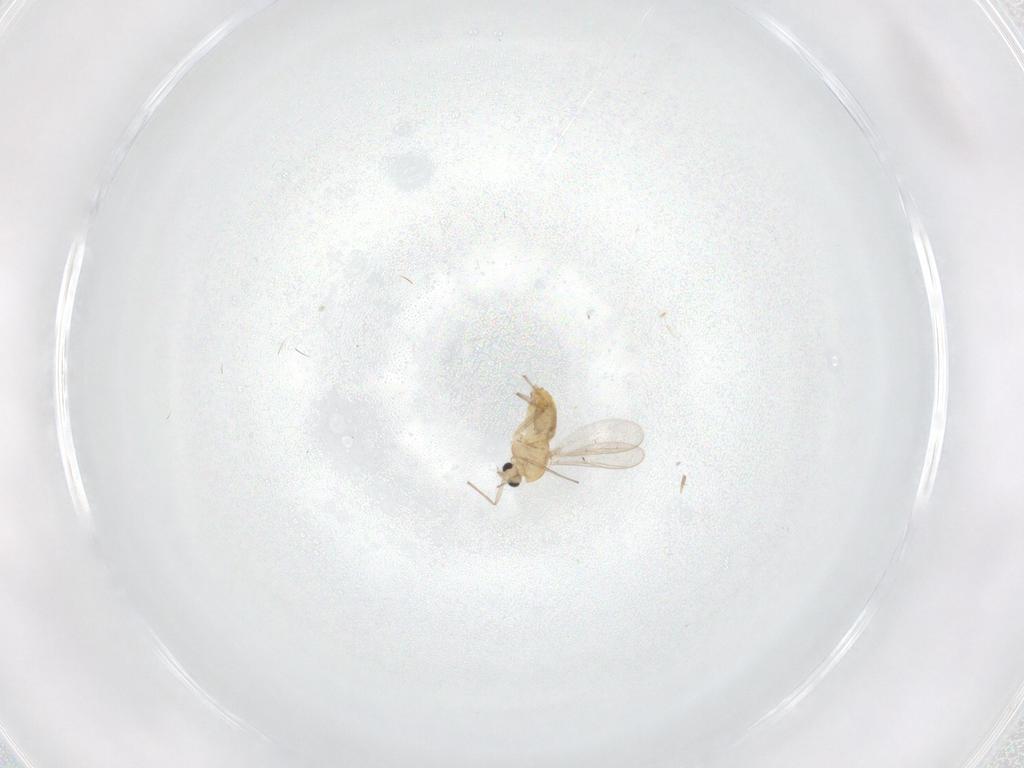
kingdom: Animalia
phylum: Arthropoda
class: Insecta
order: Diptera
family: Chironomidae
